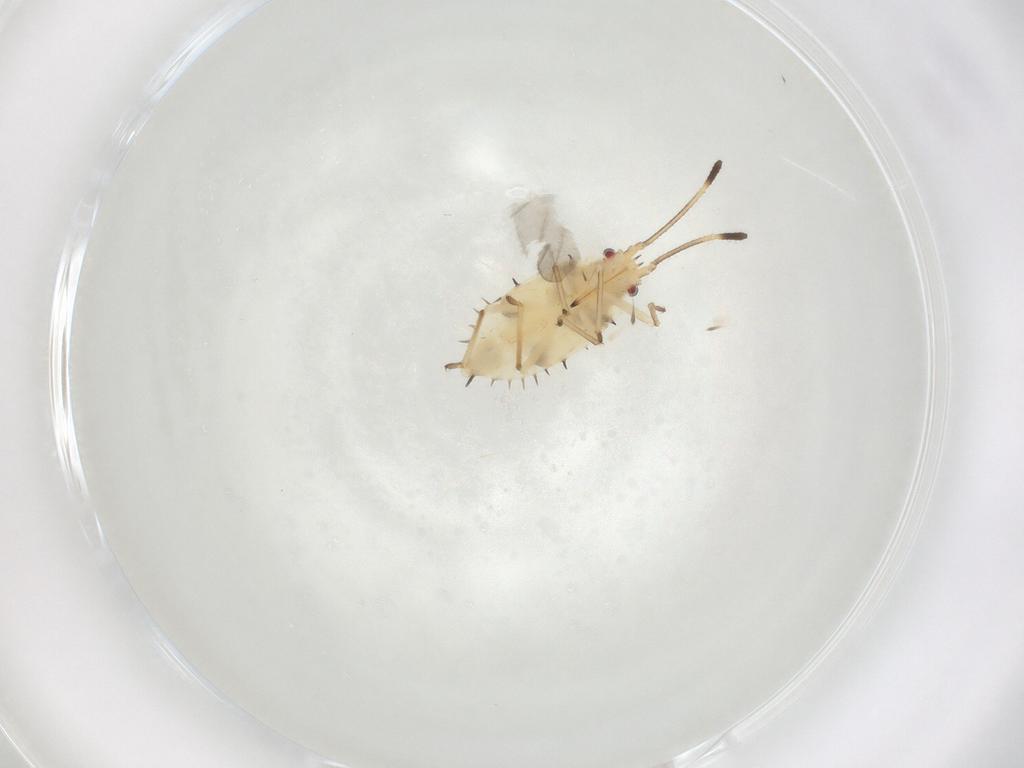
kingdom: Animalia
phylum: Arthropoda
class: Insecta
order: Hemiptera
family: Tingidae
